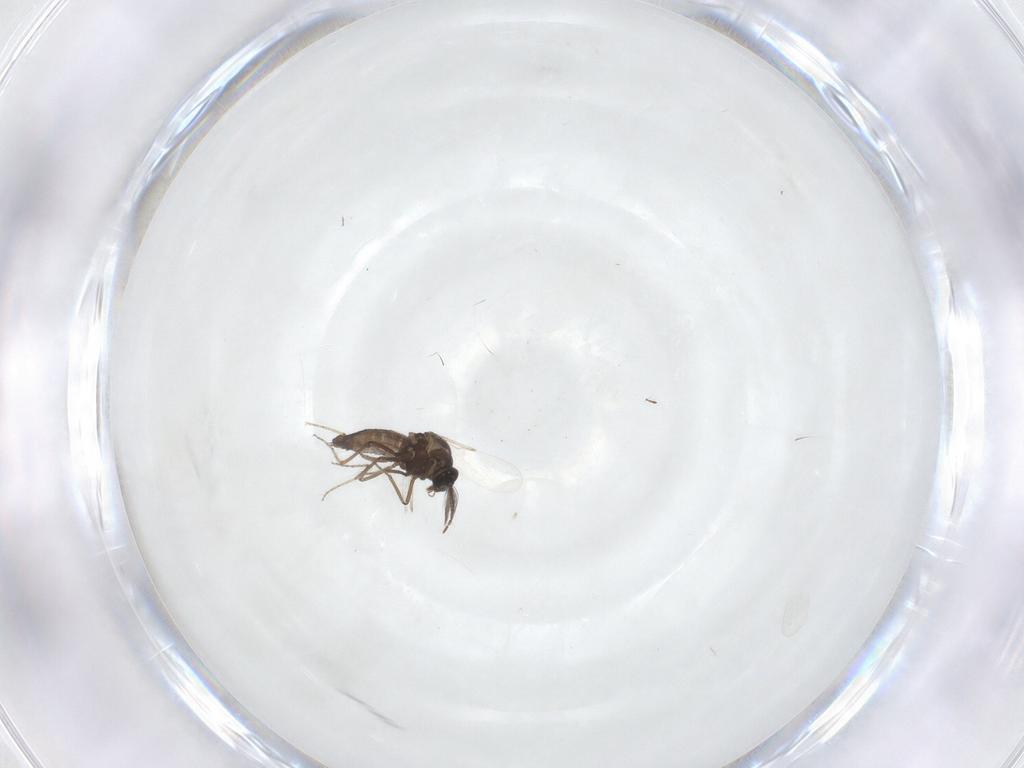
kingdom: Animalia
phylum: Arthropoda
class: Insecta
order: Diptera
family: Ceratopogonidae
